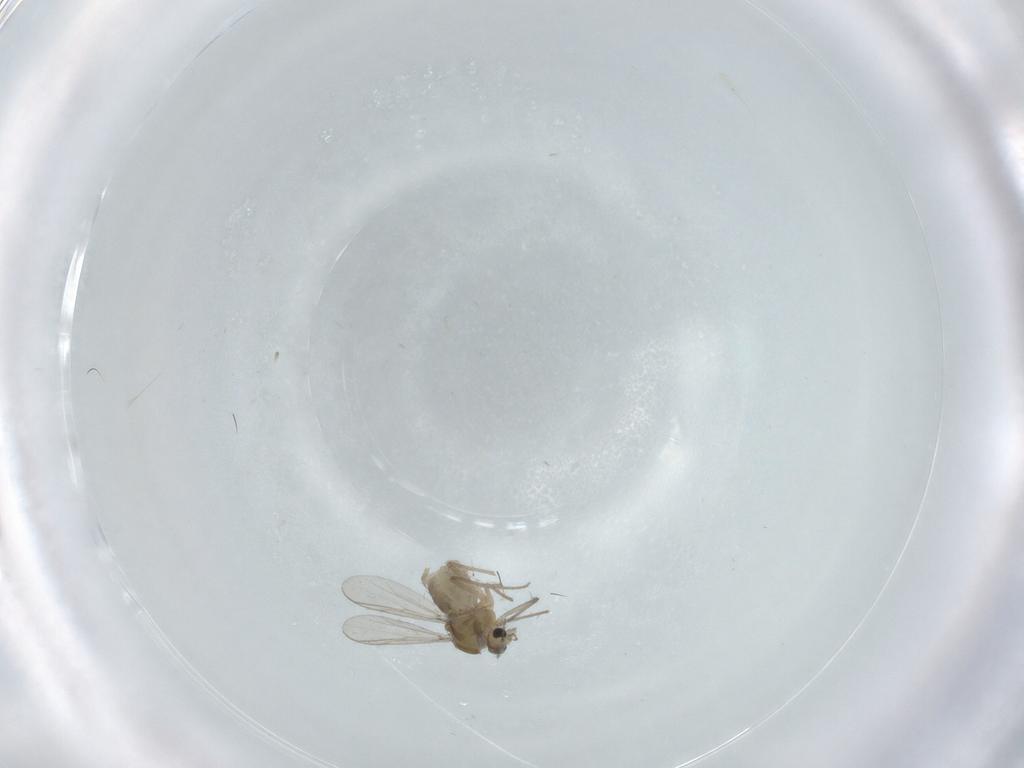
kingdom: Animalia
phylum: Arthropoda
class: Insecta
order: Diptera
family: Chironomidae
